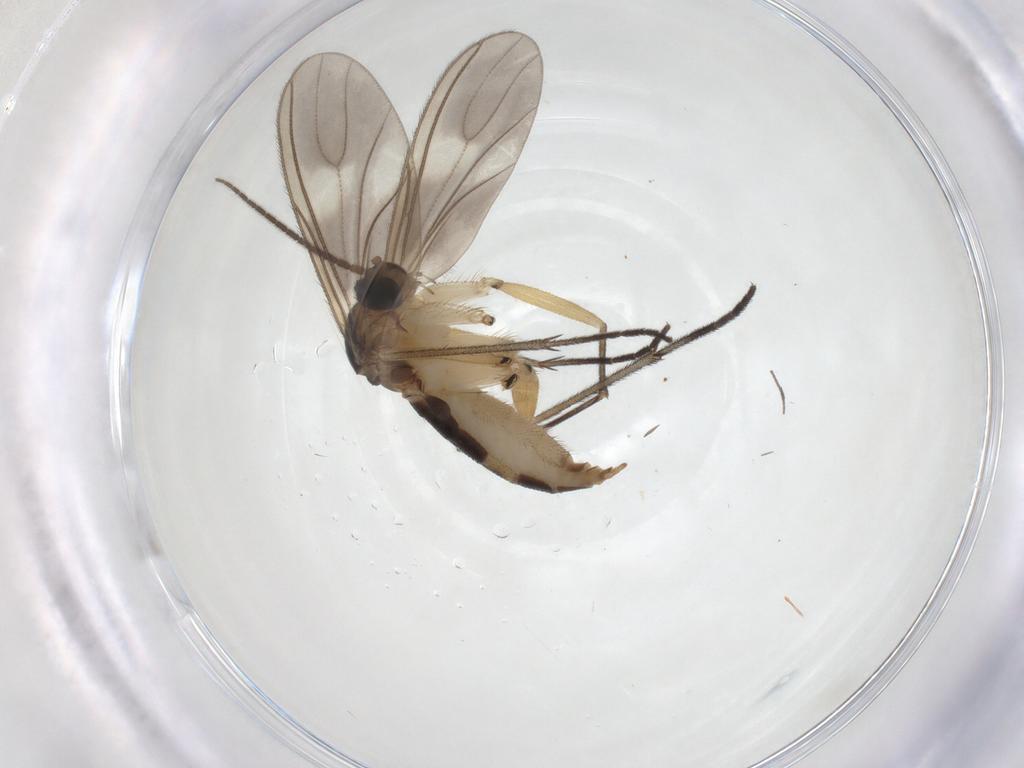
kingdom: Animalia
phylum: Arthropoda
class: Insecta
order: Diptera
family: Sciaridae
